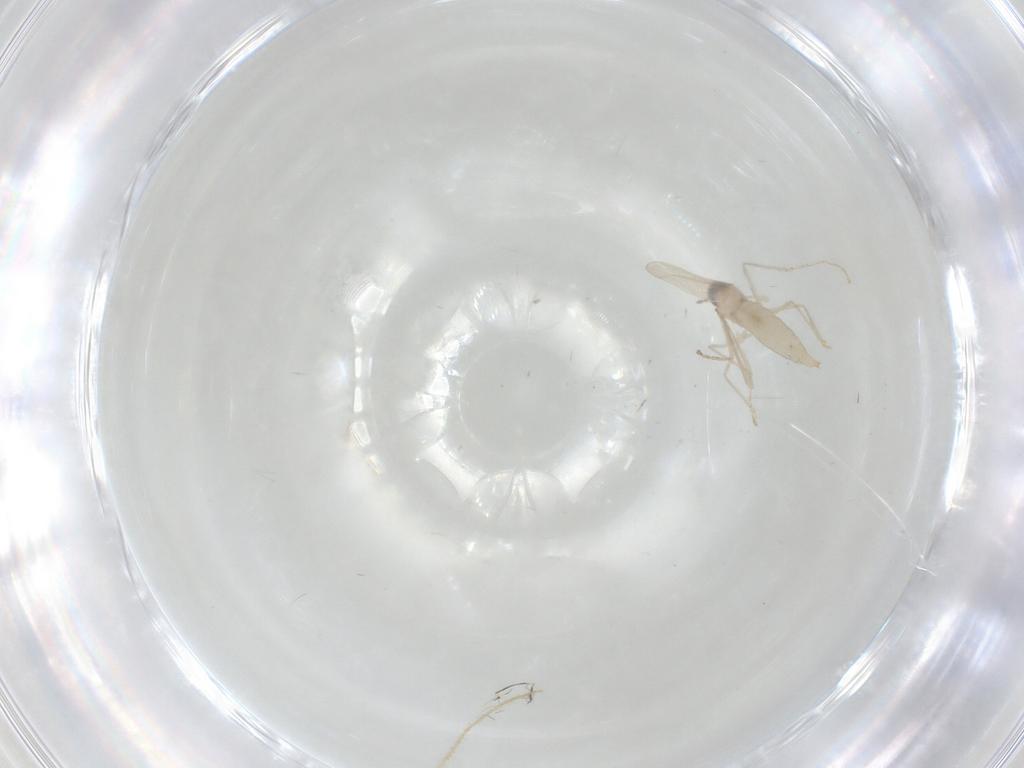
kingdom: Animalia
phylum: Arthropoda
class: Insecta
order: Diptera
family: Chironomidae
